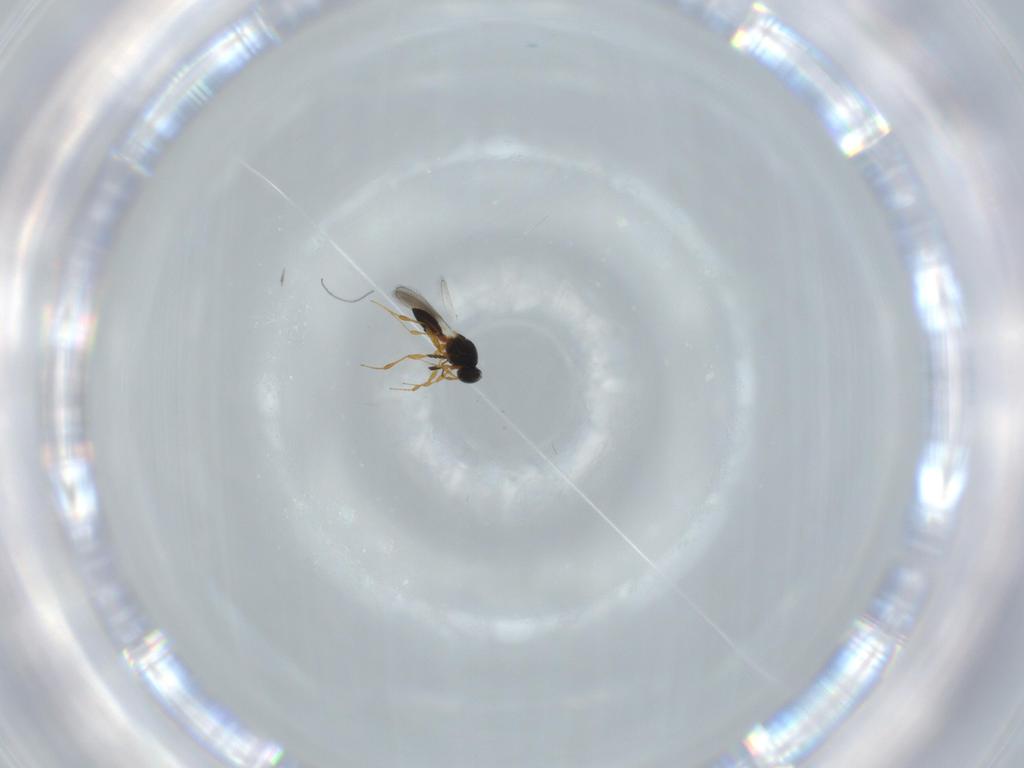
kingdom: Animalia
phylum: Arthropoda
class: Insecta
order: Hymenoptera
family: Platygastridae
